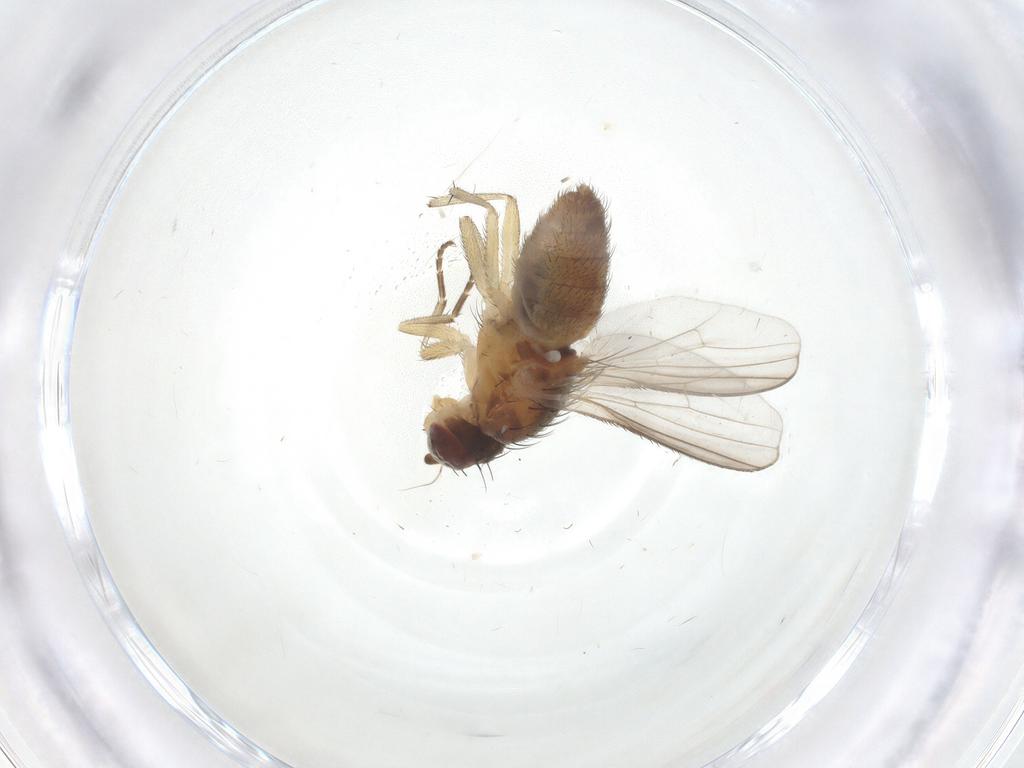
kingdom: Animalia
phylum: Arthropoda
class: Insecta
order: Diptera
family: Heleomyzidae
